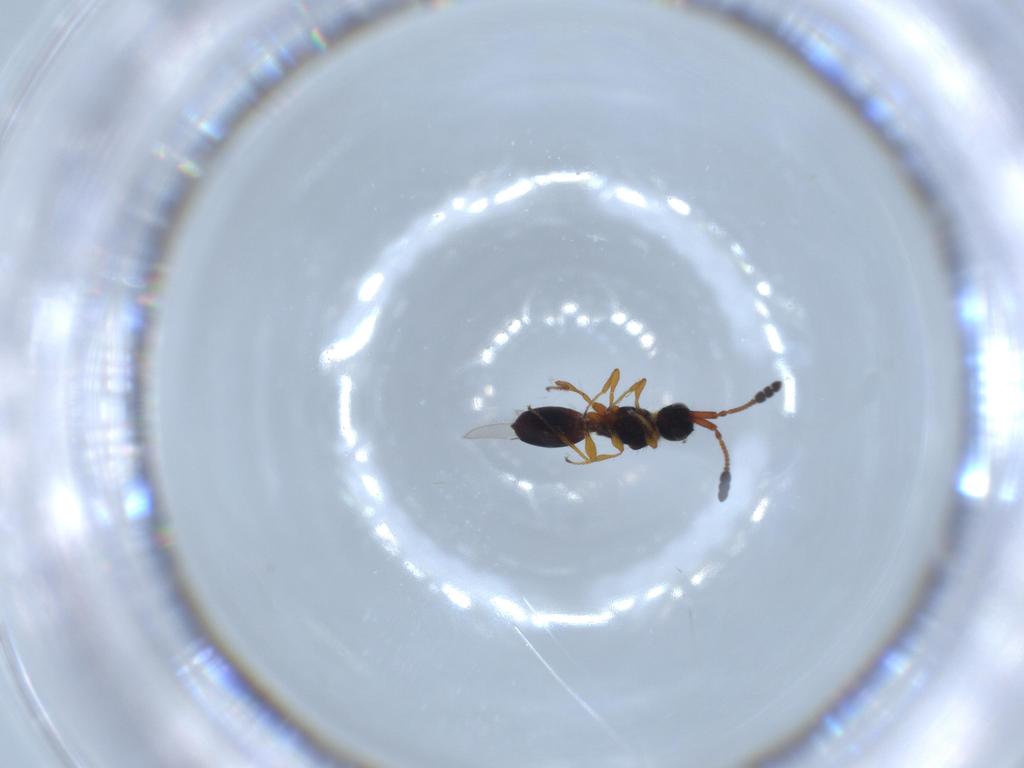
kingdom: Animalia
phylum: Arthropoda
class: Insecta
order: Hymenoptera
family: Diapriidae
